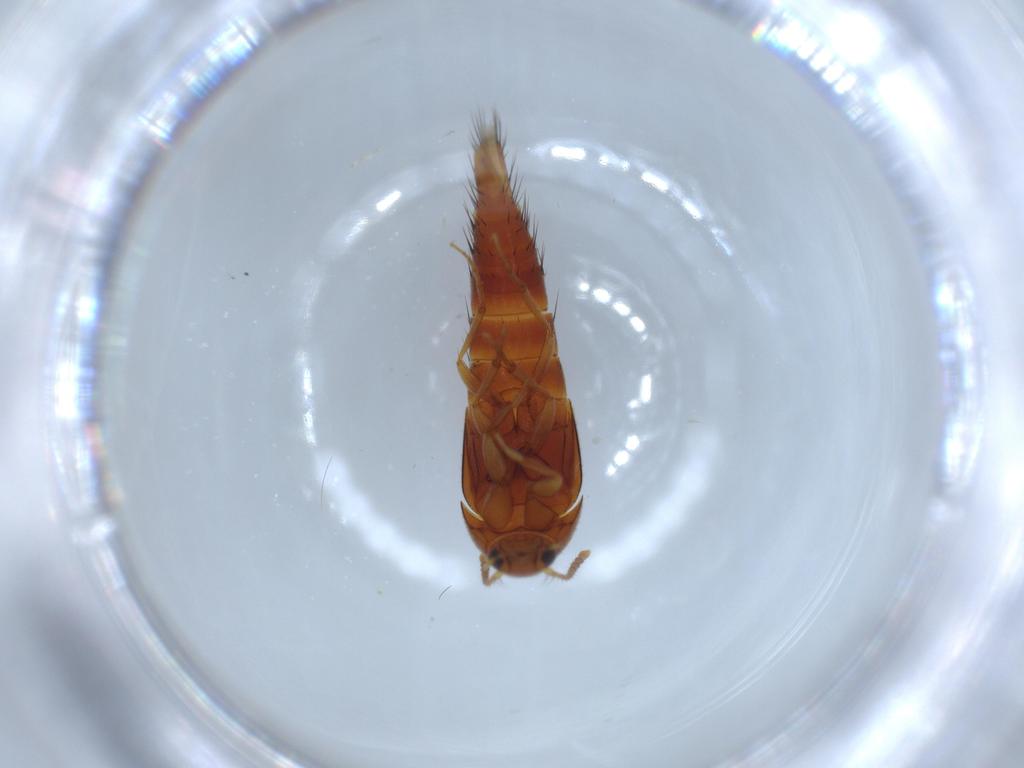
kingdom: Animalia
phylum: Arthropoda
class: Insecta
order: Coleoptera
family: Staphylinidae
